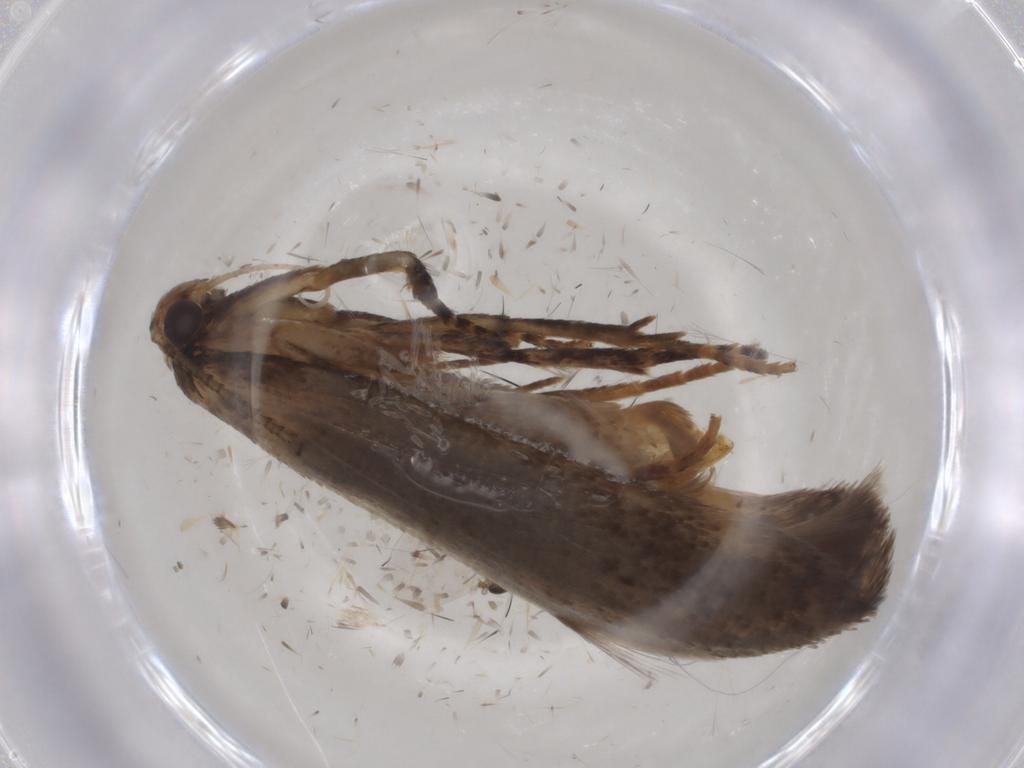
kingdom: Animalia
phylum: Arthropoda
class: Insecta
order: Lepidoptera
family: Gelechiidae
